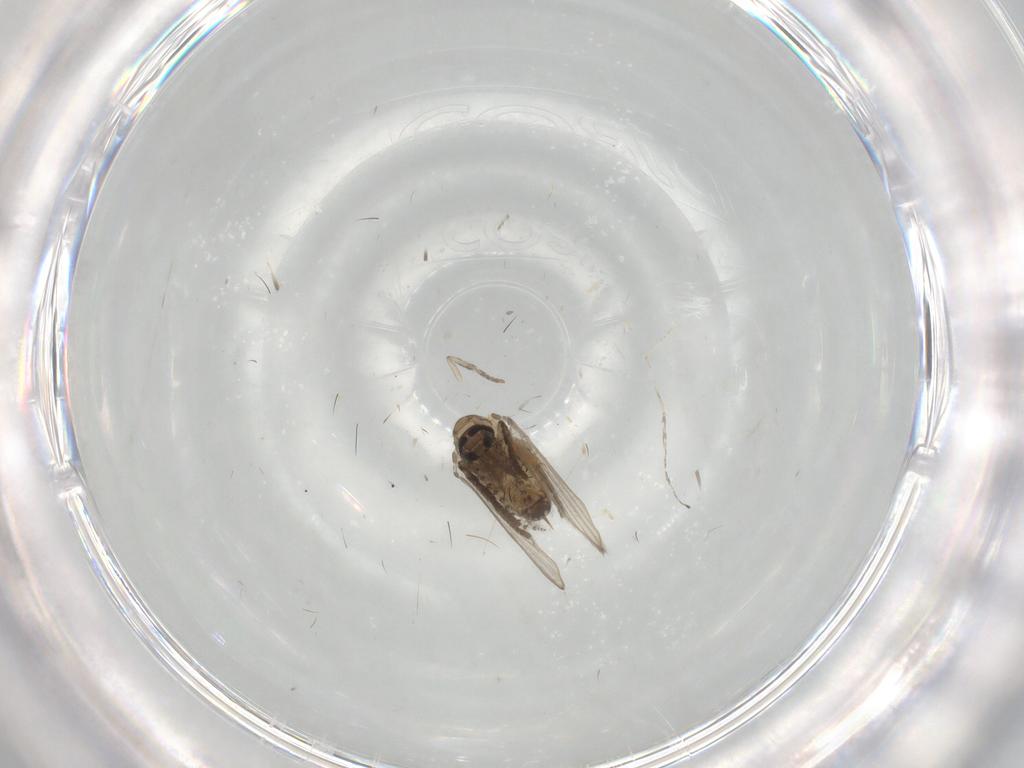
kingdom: Animalia
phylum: Arthropoda
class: Insecta
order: Diptera
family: Psychodidae
